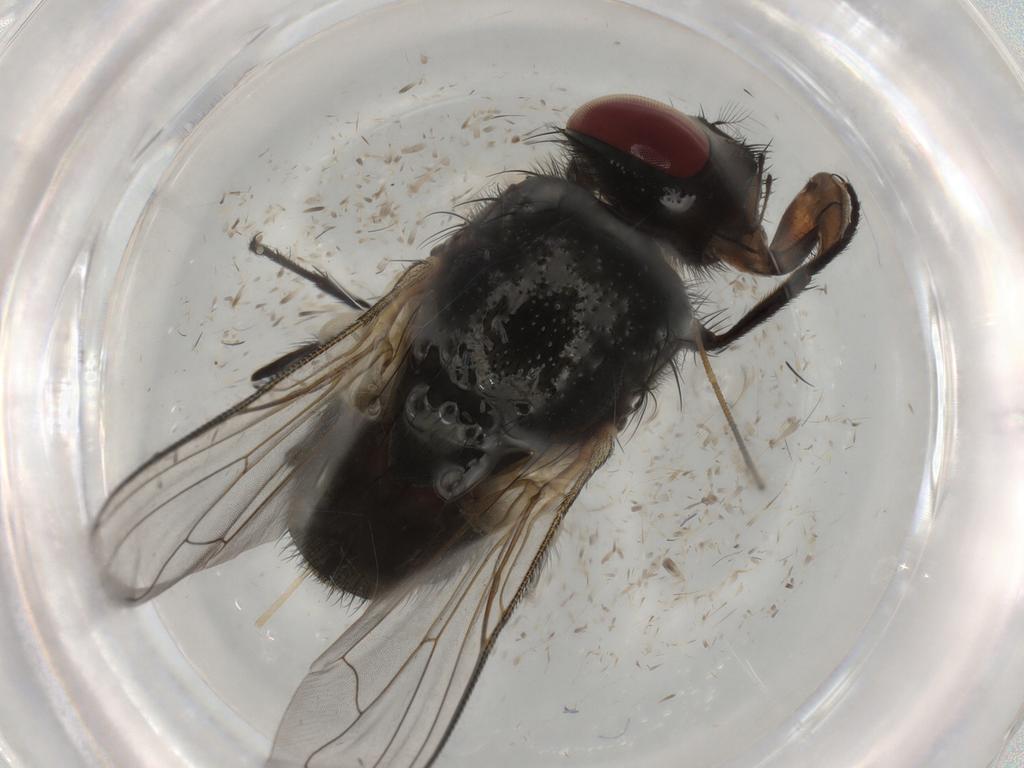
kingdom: Animalia
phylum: Arthropoda
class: Insecta
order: Diptera
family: Muscidae
